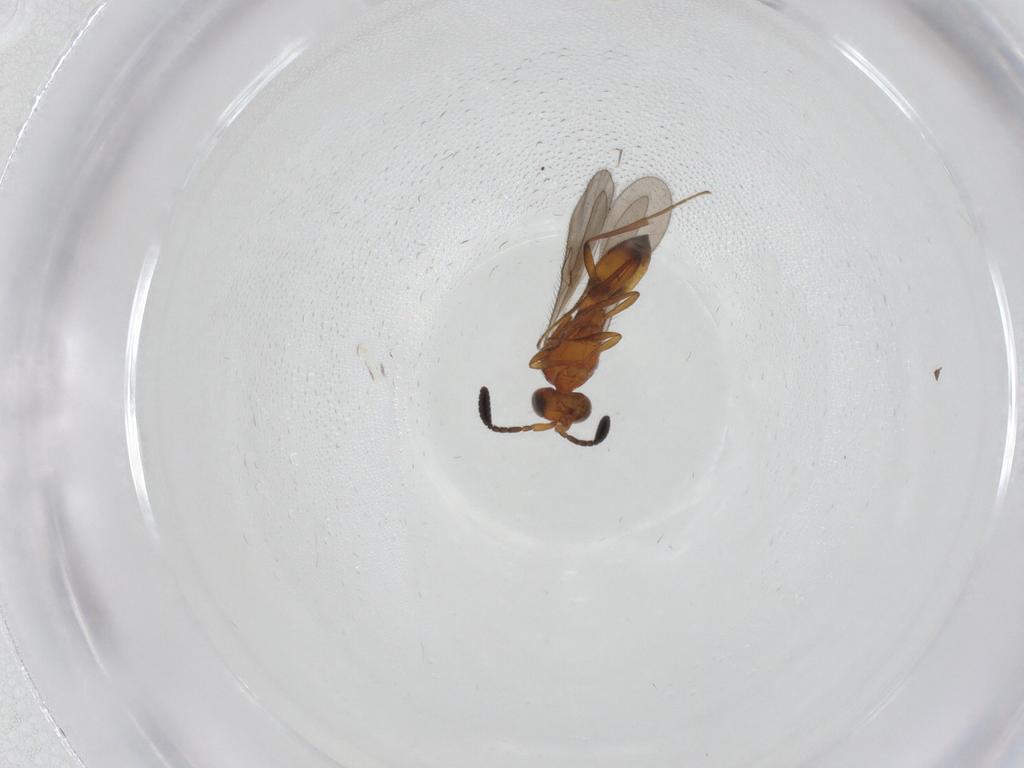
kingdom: Animalia
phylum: Arthropoda
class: Insecta
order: Hymenoptera
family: Scelionidae
